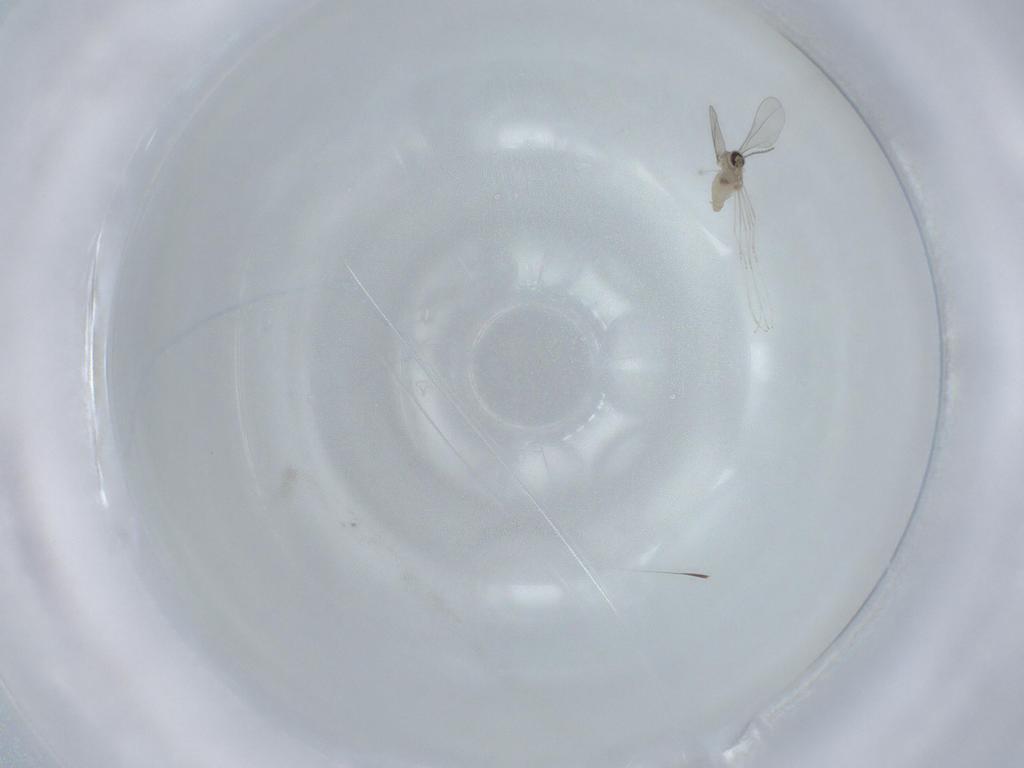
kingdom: Animalia
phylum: Arthropoda
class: Insecta
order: Diptera
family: Cecidomyiidae
